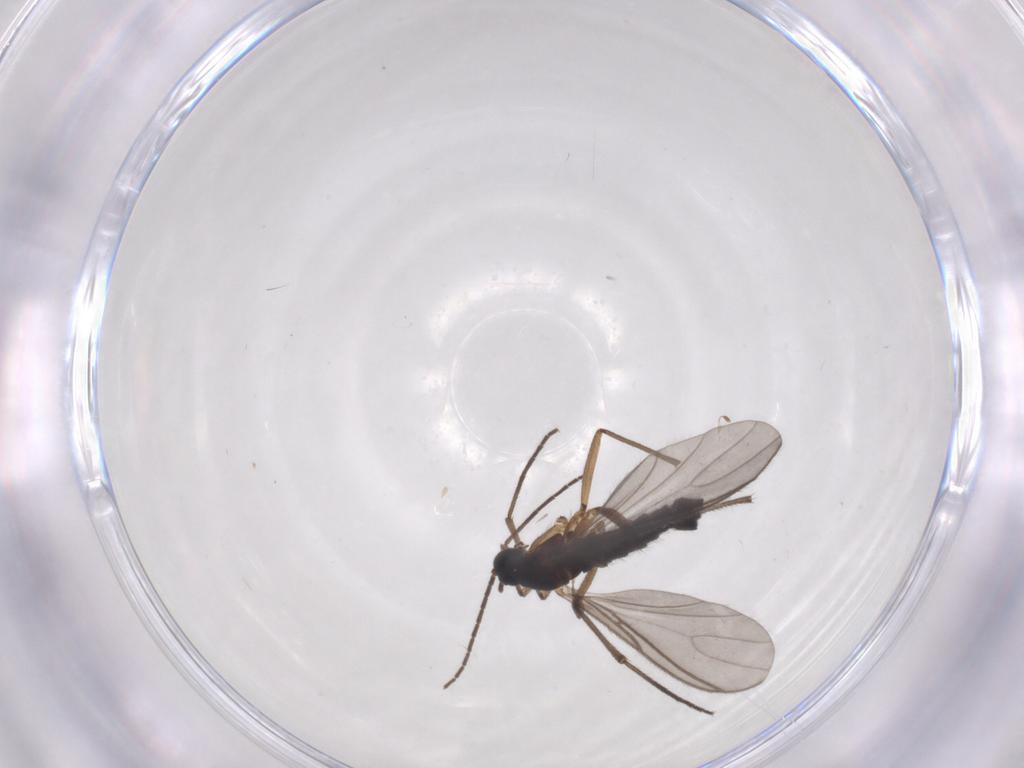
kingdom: Animalia
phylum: Arthropoda
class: Insecta
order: Diptera
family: Sciaridae
